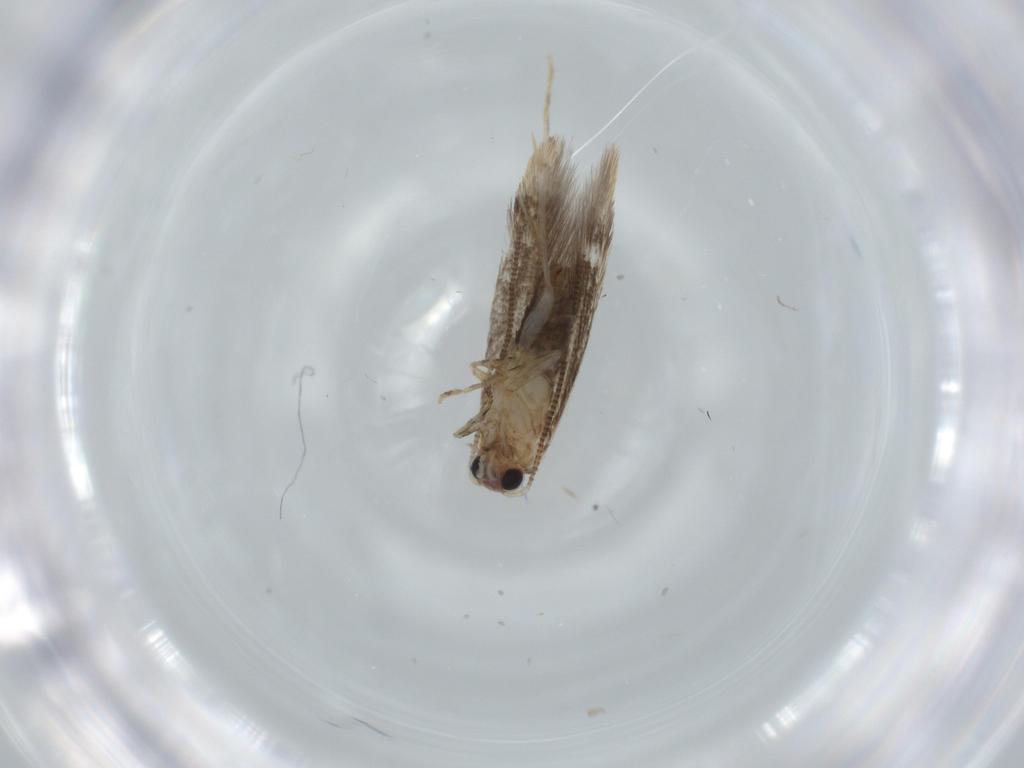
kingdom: Animalia
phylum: Arthropoda
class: Insecta
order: Lepidoptera
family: Tineidae
